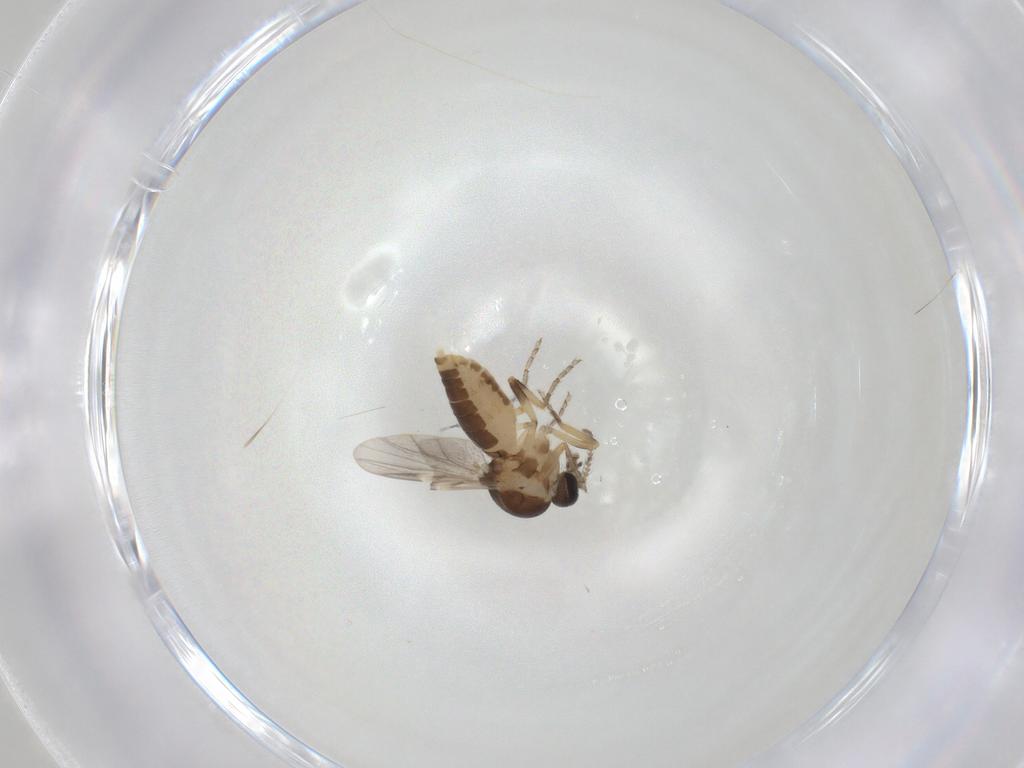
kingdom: Animalia
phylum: Arthropoda
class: Insecta
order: Diptera
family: Ceratopogonidae
